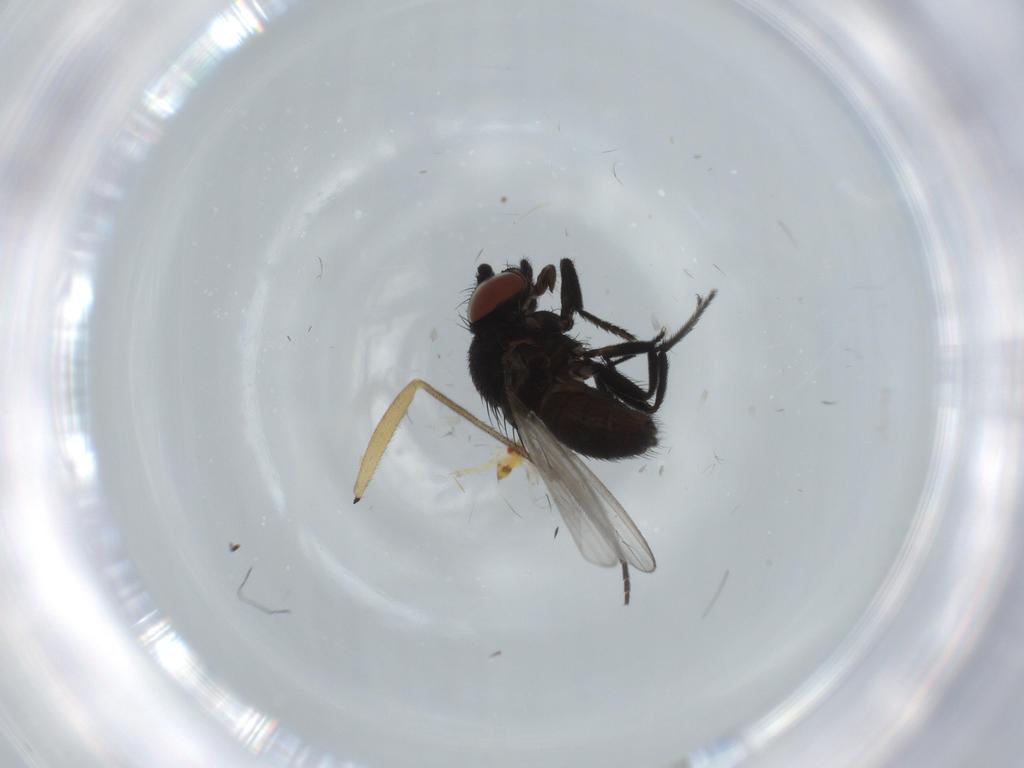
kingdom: Animalia
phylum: Arthropoda
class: Insecta
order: Diptera
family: Milichiidae
